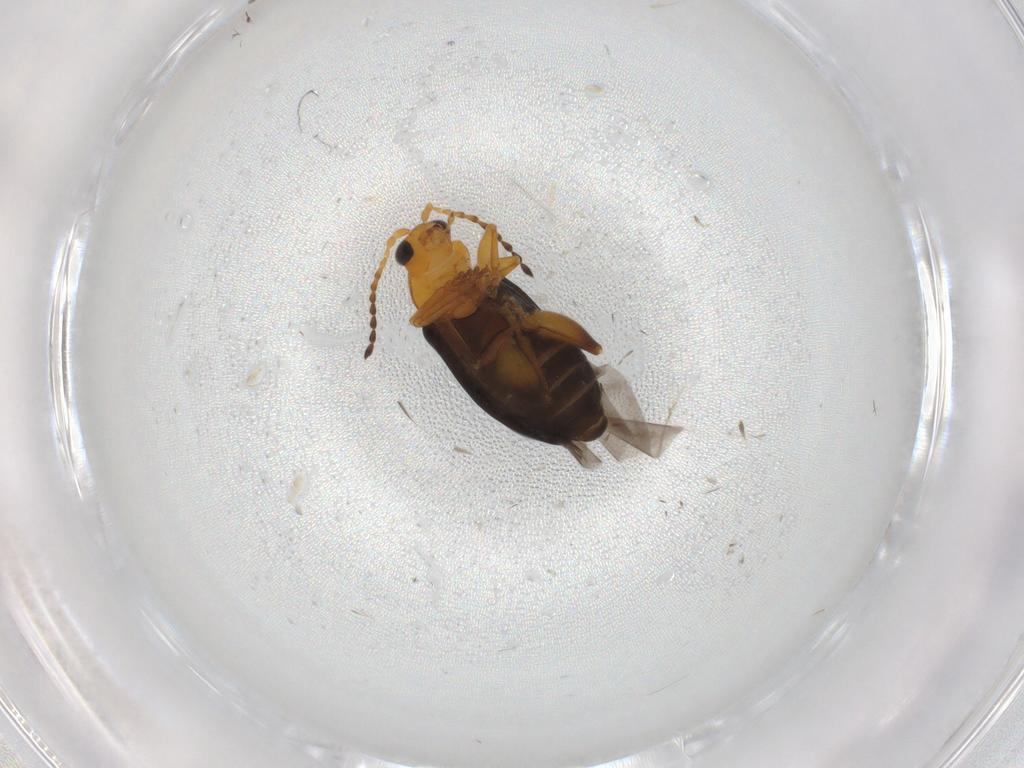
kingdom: Animalia
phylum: Arthropoda
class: Insecta
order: Coleoptera
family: Chrysomelidae
